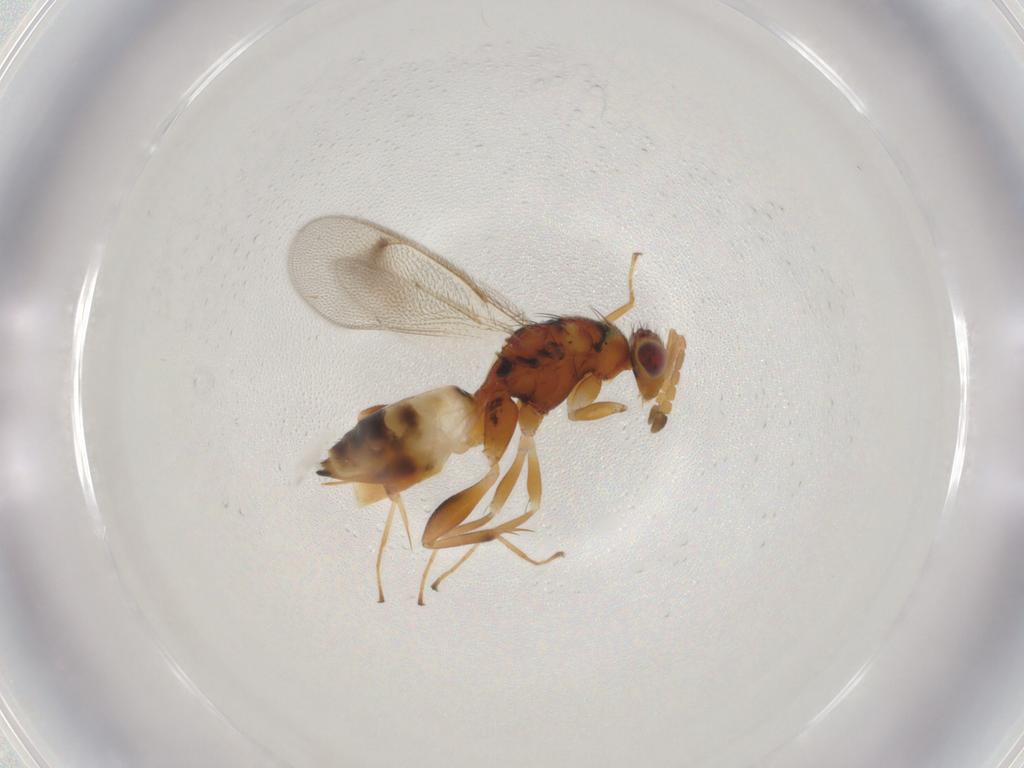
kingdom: Animalia
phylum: Arthropoda
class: Insecta
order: Hymenoptera
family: Eulophidae
